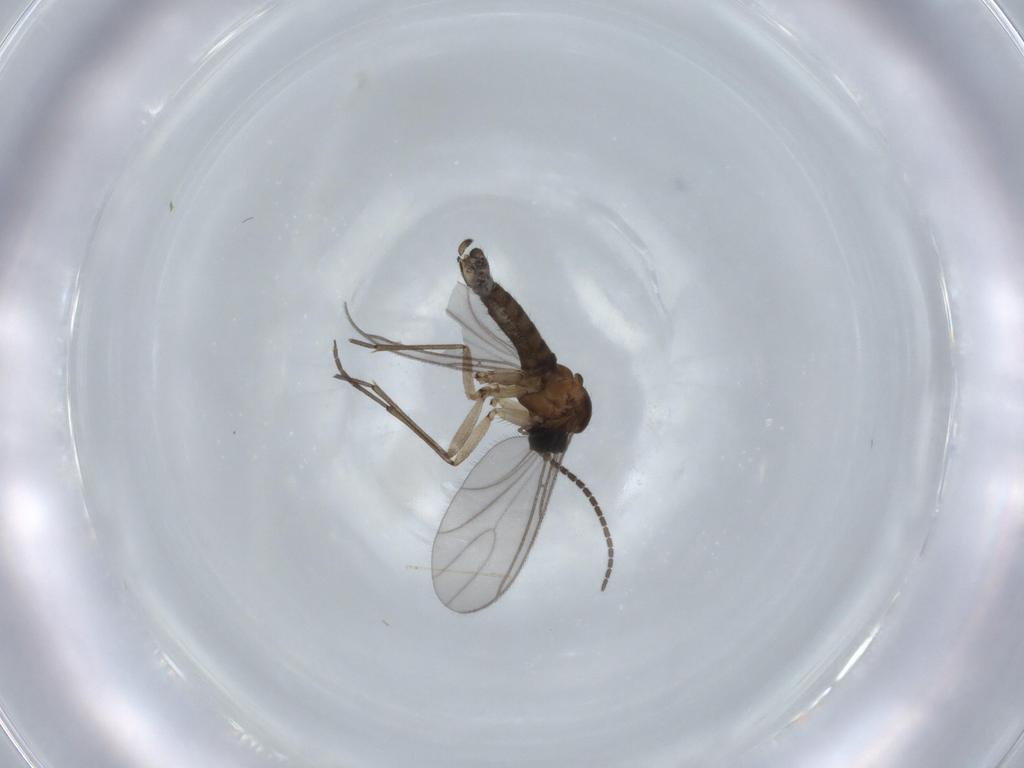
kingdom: Animalia
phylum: Arthropoda
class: Insecta
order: Diptera
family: Sciaridae
